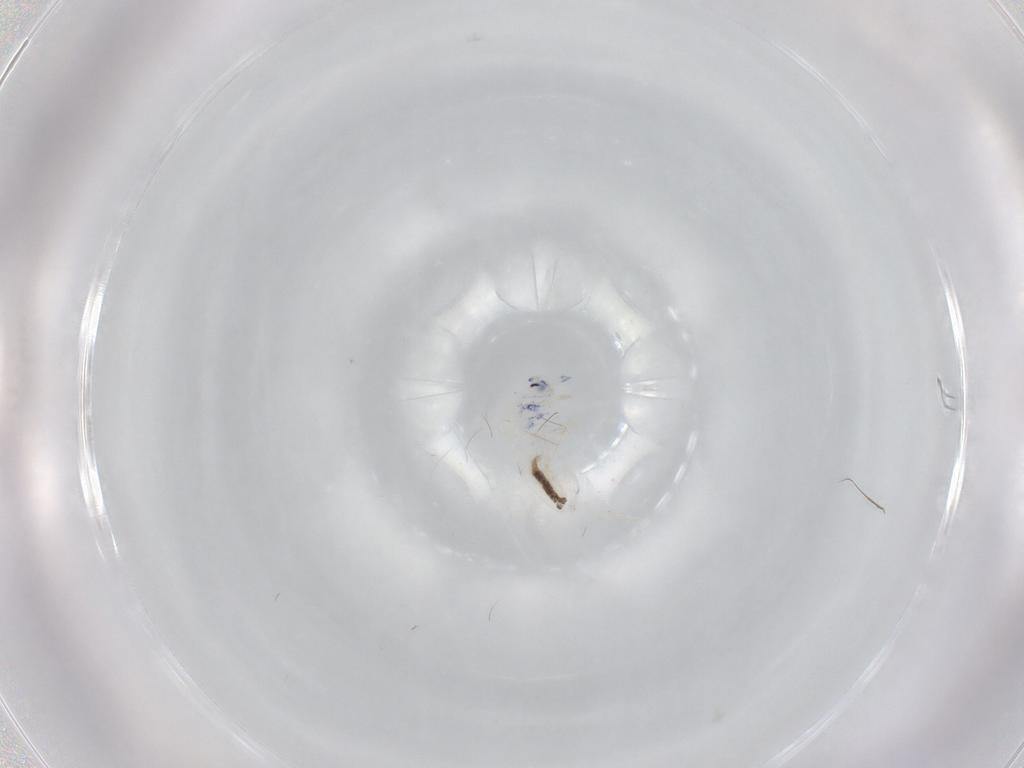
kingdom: Animalia
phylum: Arthropoda
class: Collembola
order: Entomobryomorpha
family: Entomobryidae
